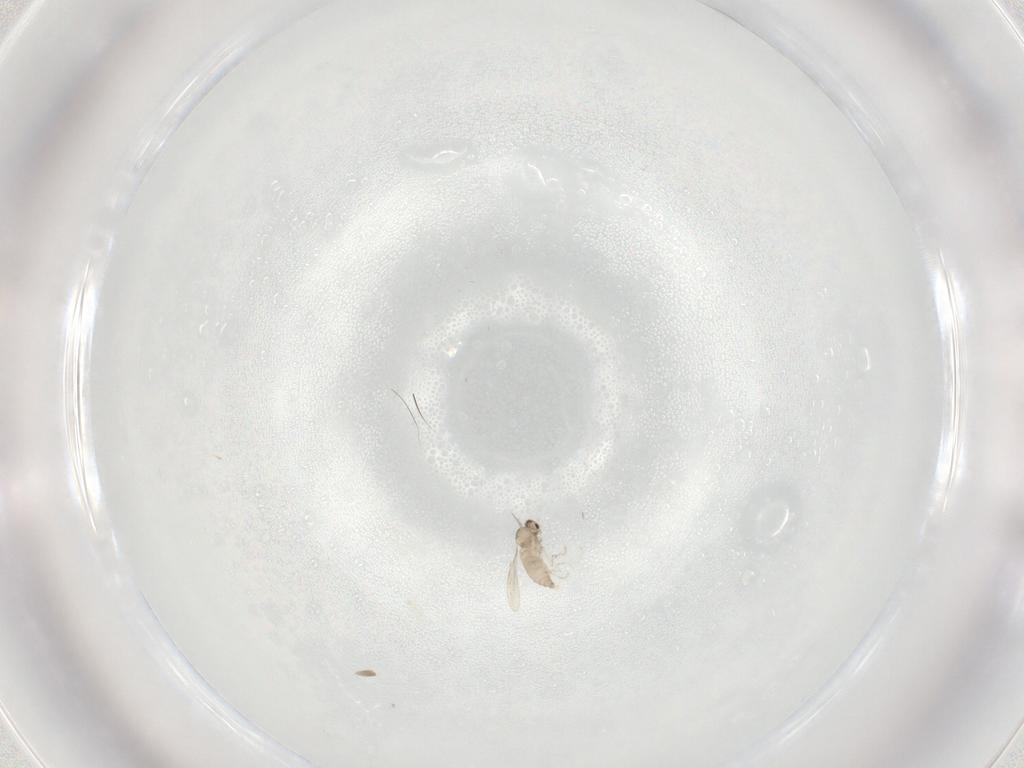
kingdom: Animalia
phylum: Arthropoda
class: Insecta
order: Diptera
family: Cecidomyiidae
